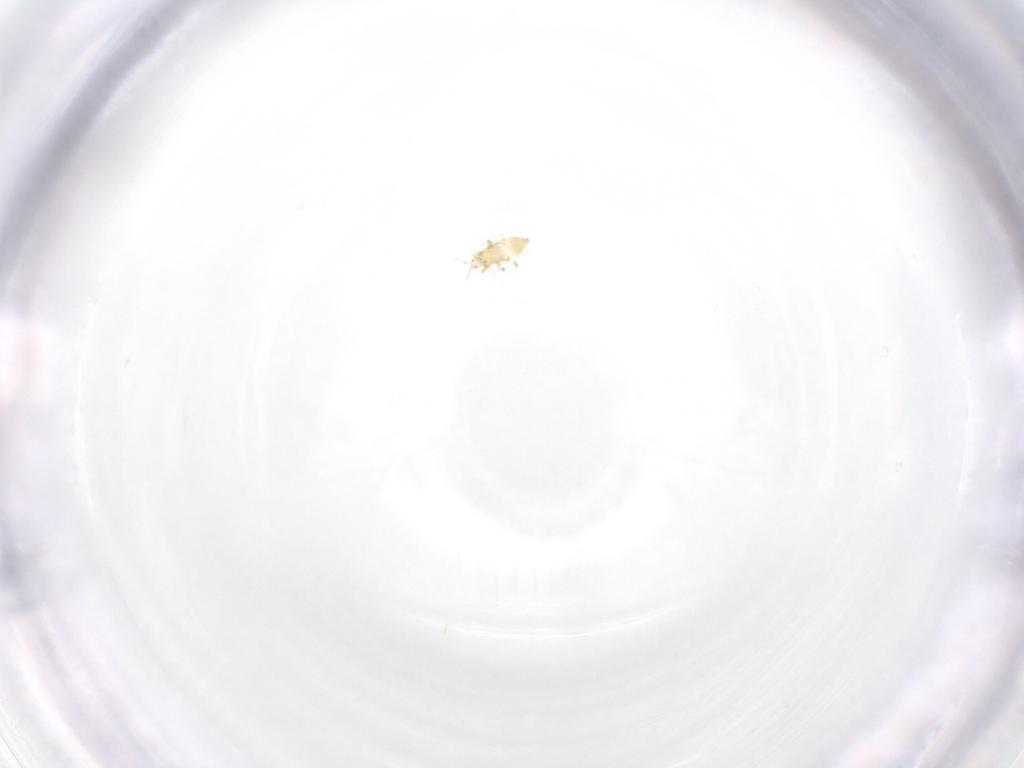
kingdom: Animalia
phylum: Arthropoda
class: Insecta
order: Thysanoptera
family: Thripidae
